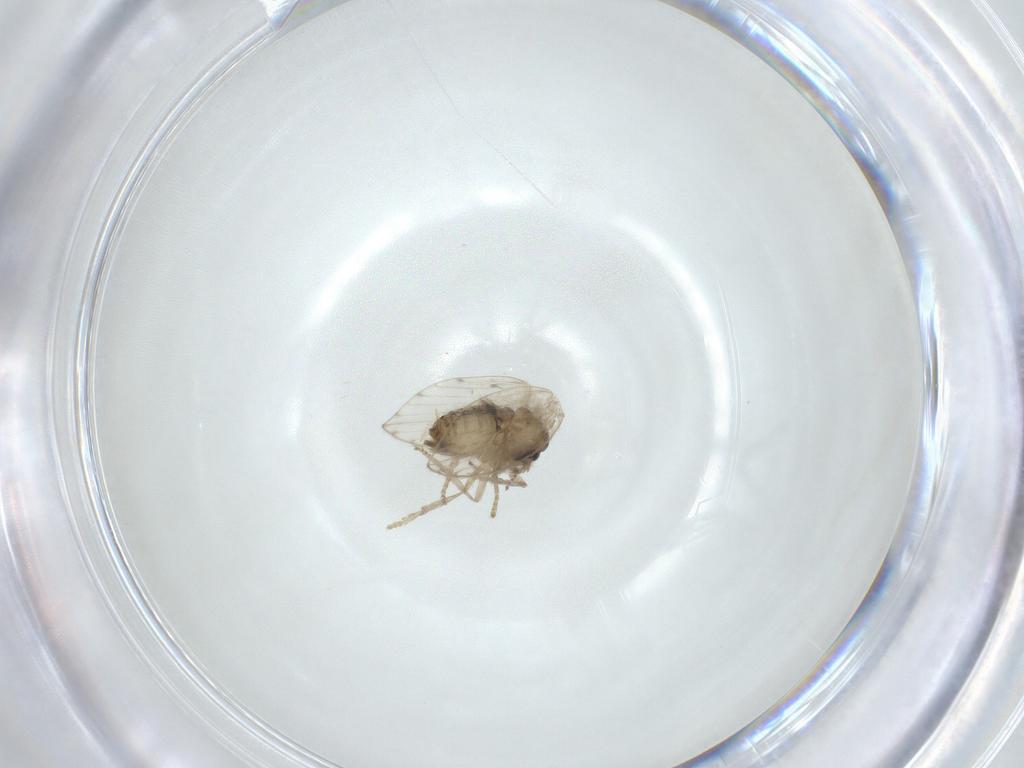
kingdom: Animalia
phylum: Arthropoda
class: Insecta
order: Diptera
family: Psychodidae
